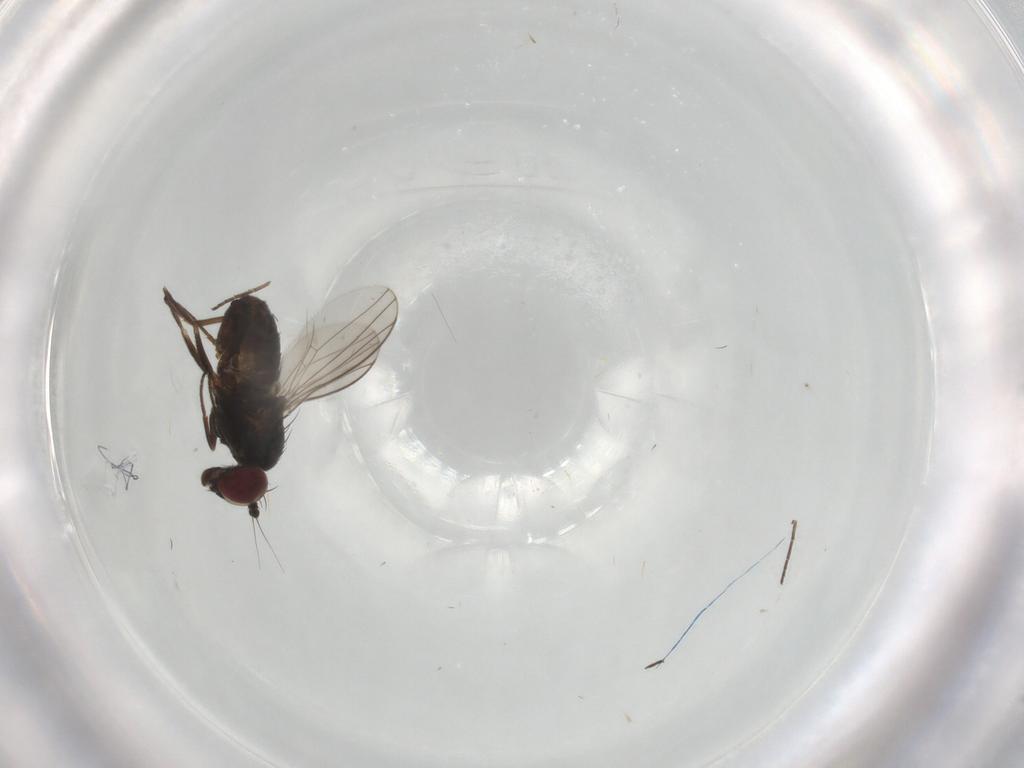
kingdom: Animalia
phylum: Arthropoda
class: Insecta
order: Diptera
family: Dolichopodidae
